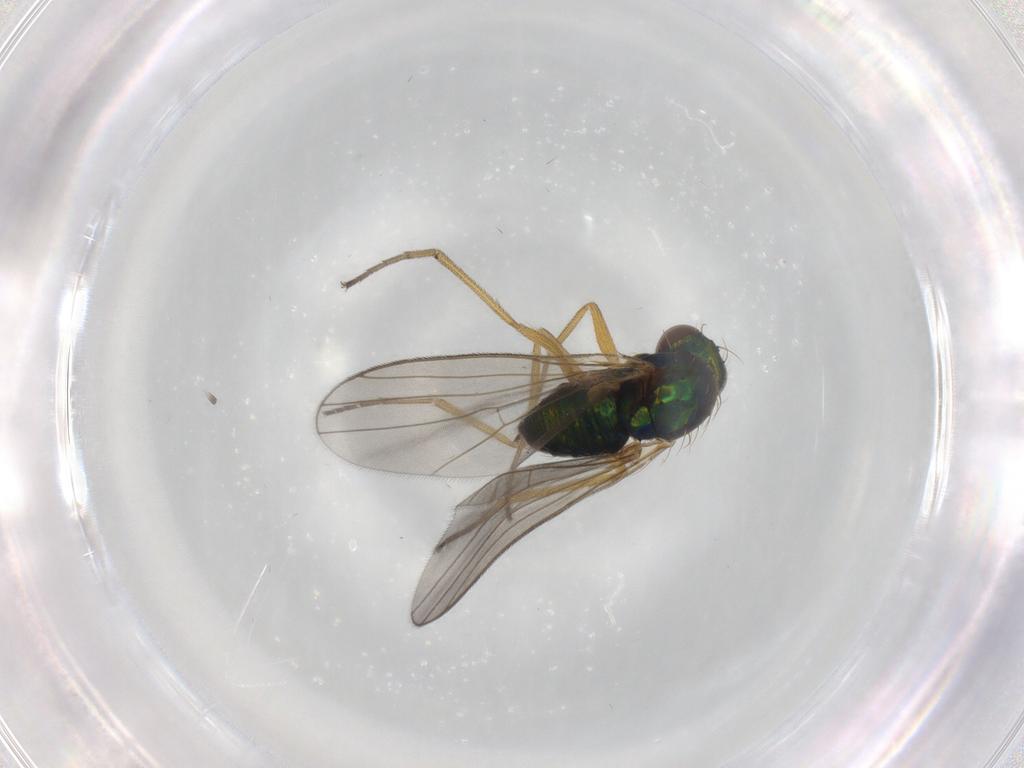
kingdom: Animalia
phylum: Arthropoda
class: Insecta
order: Diptera
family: Dolichopodidae
